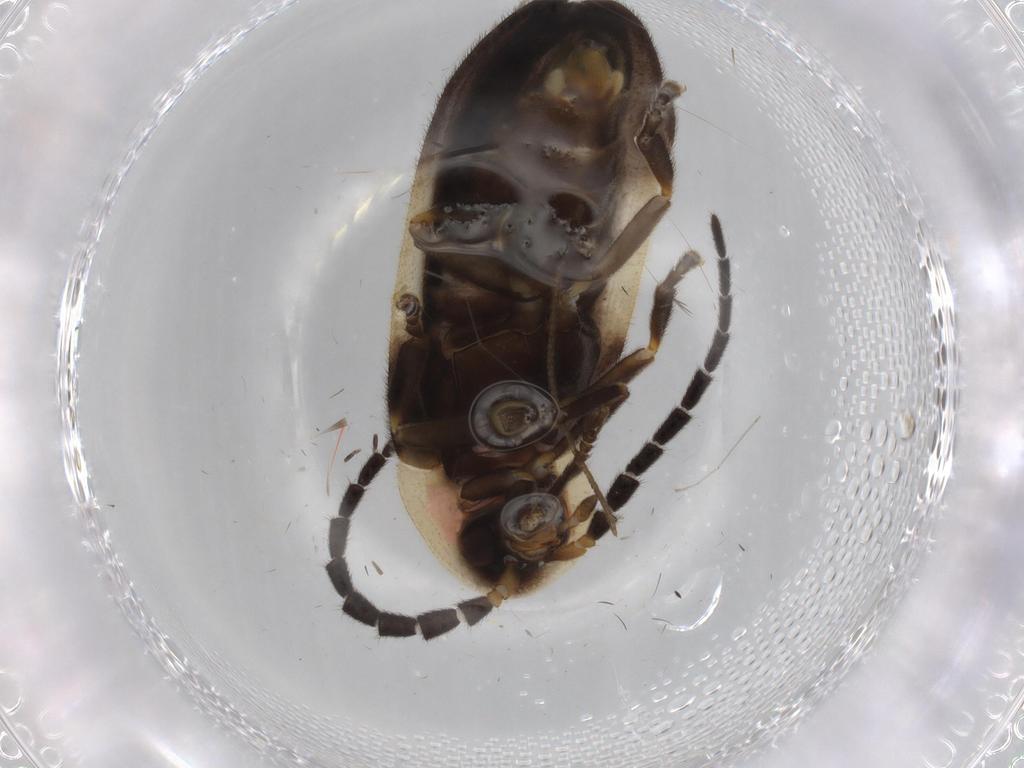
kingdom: Animalia
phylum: Arthropoda
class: Insecta
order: Coleoptera
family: Lampyridae
